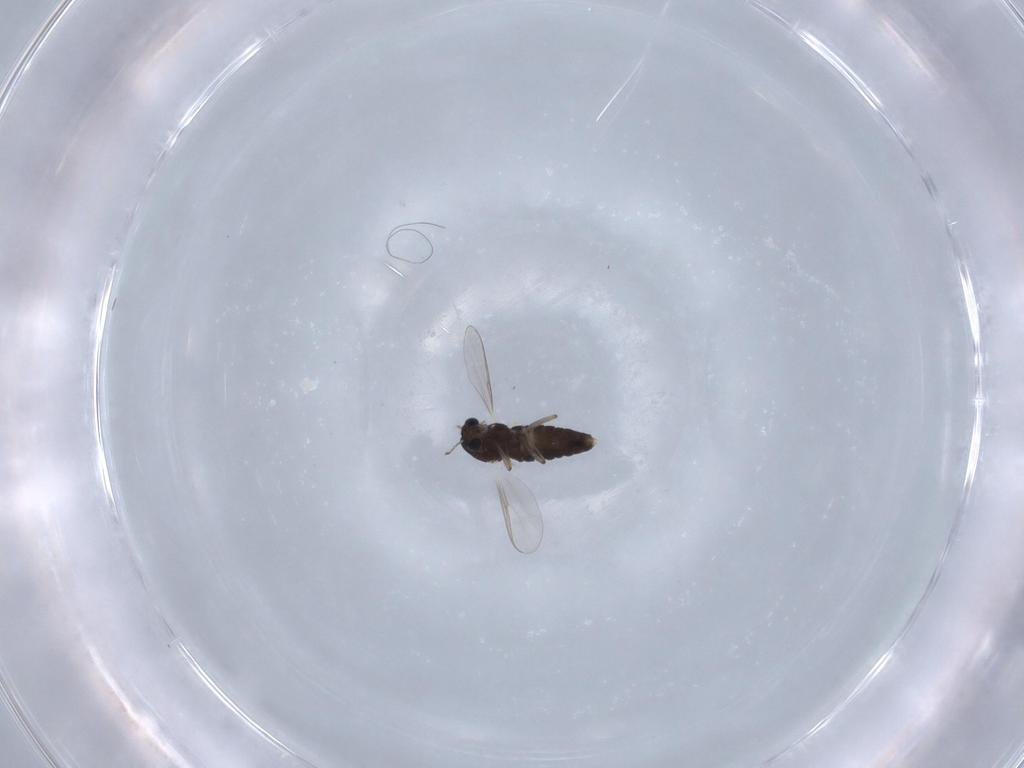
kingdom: Animalia
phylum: Arthropoda
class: Insecta
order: Diptera
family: Chironomidae
